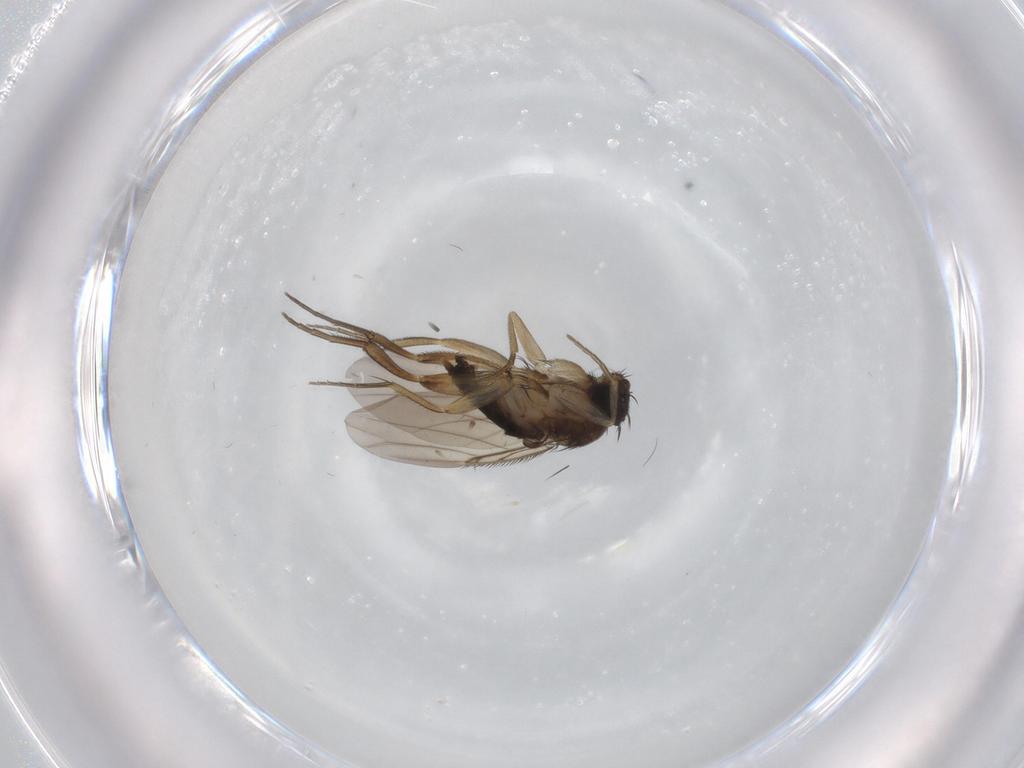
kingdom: Animalia
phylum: Arthropoda
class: Insecta
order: Diptera
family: Phoridae
